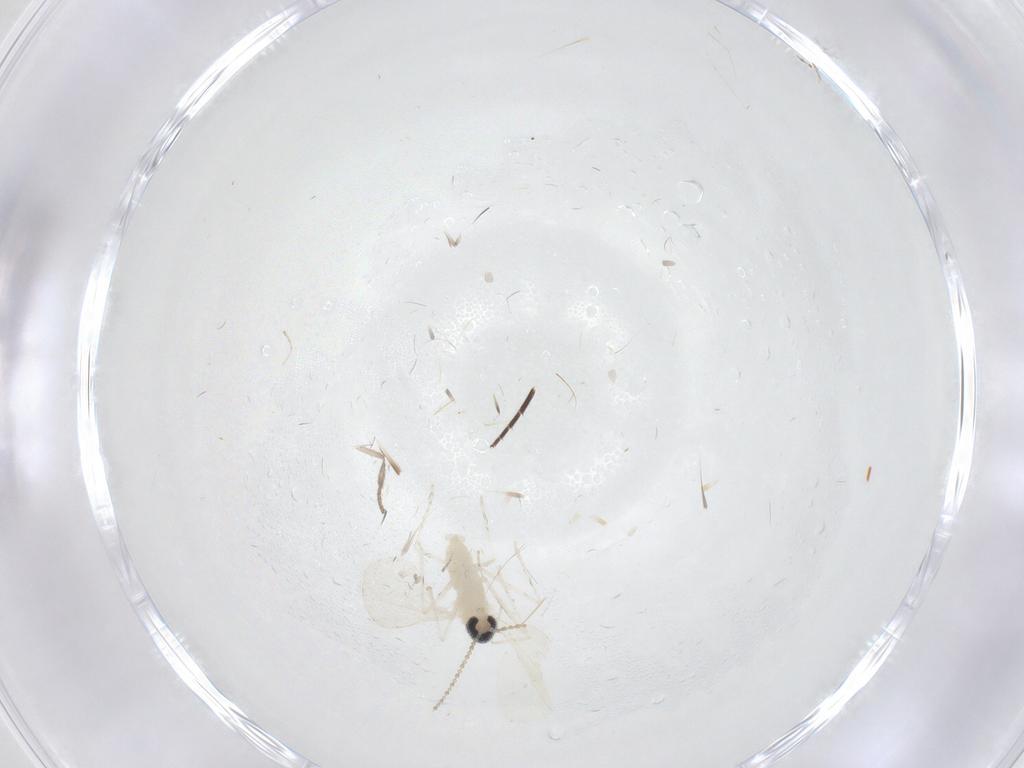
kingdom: Animalia
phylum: Arthropoda
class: Insecta
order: Diptera
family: Cecidomyiidae
